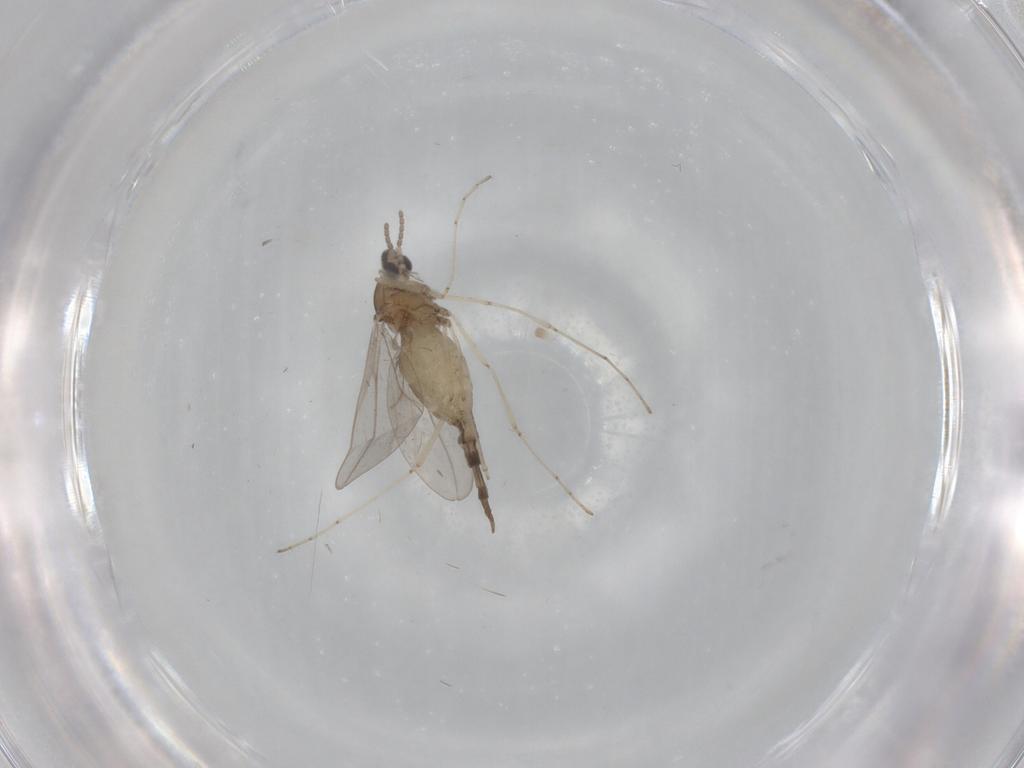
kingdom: Animalia
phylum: Arthropoda
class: Insecta
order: Diptera
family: Cecidomyiidae
